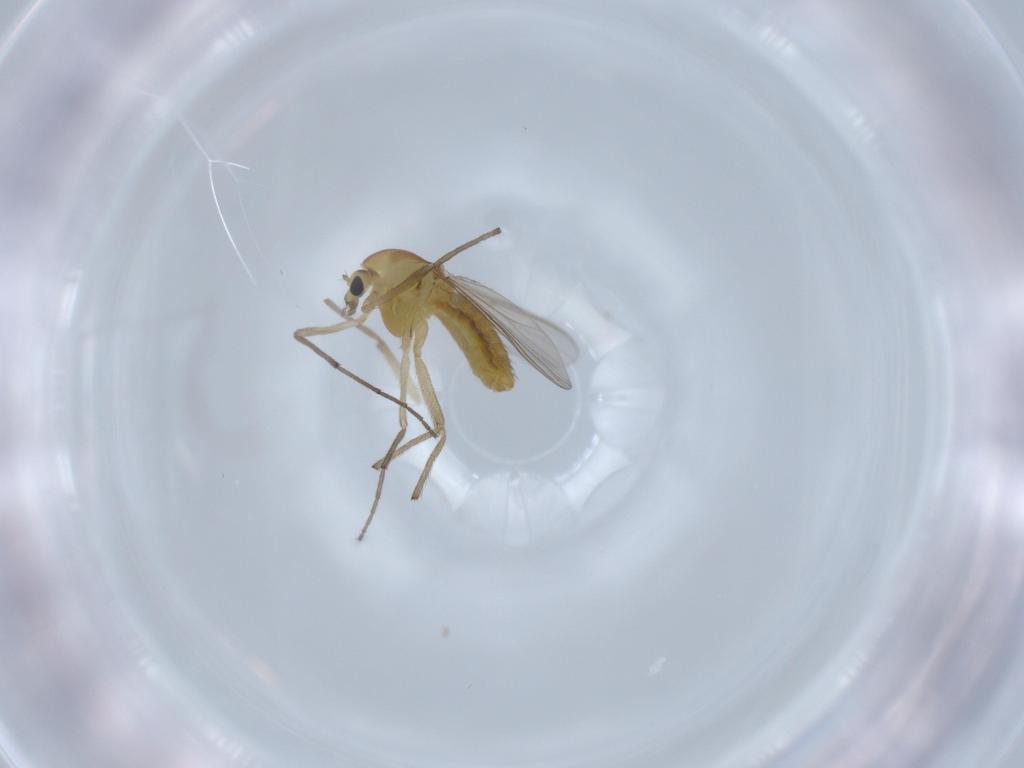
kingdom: Animalia
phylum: Arthropoda
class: Insecta
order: Diptera
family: Chironomidae
